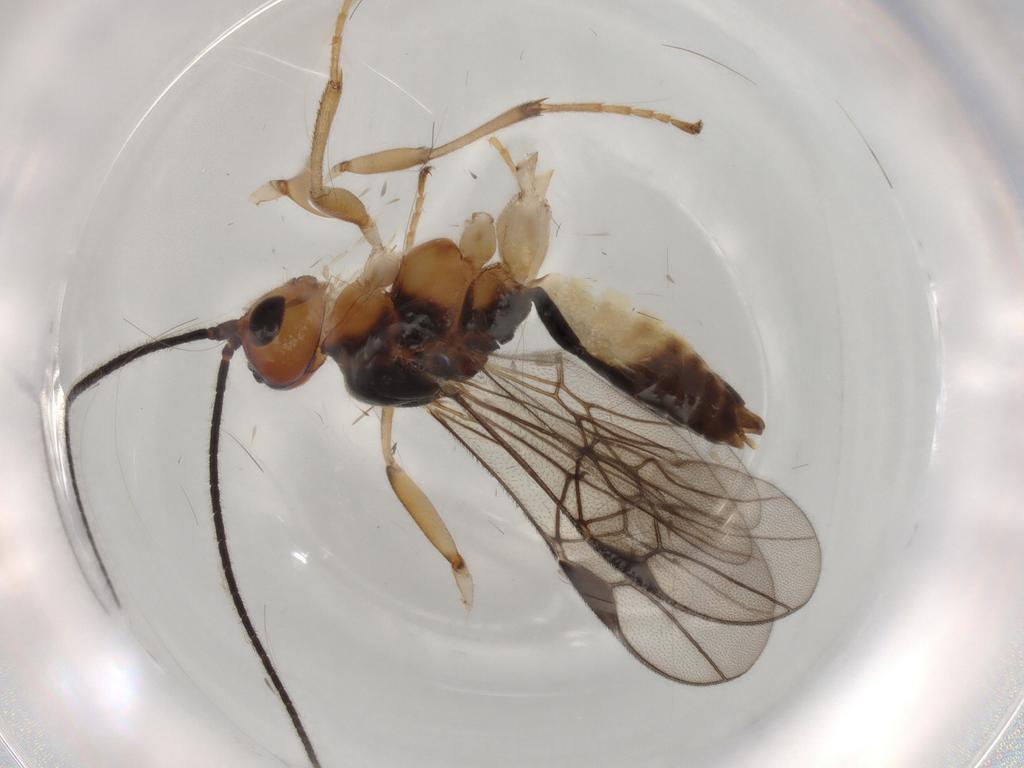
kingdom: Animalia
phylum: Arthropoda
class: Insecta
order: Hymenoptera
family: Braconidae
